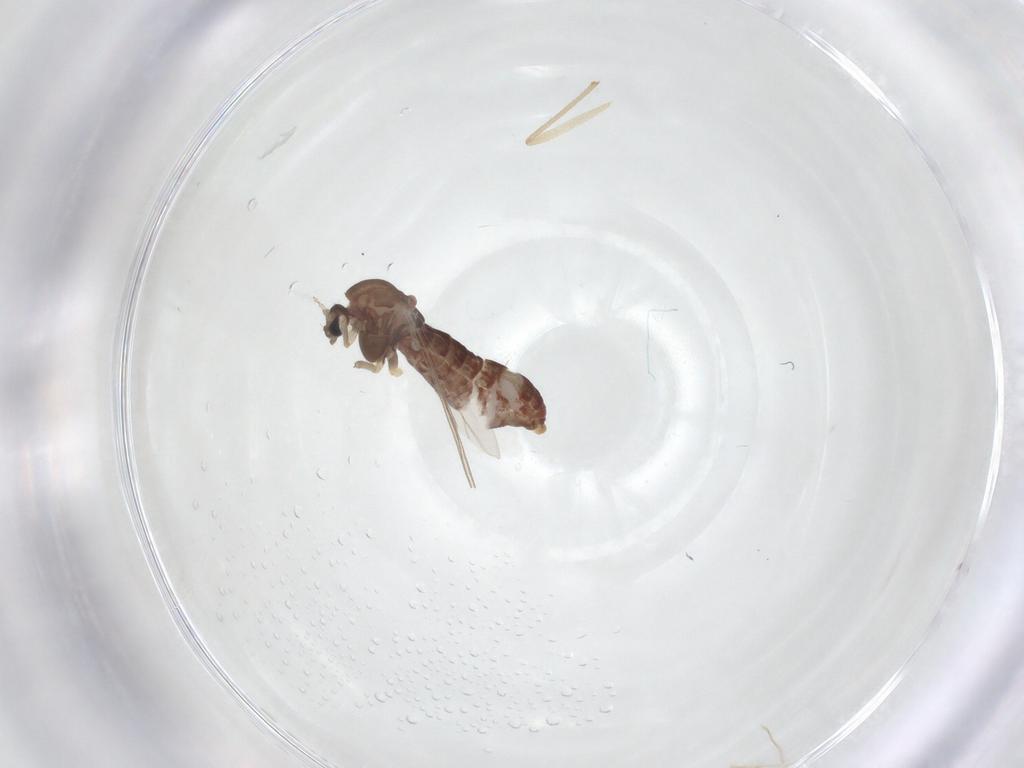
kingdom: Animalia
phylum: Arthropoda
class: Insecta
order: Diptera
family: Chironomidae
